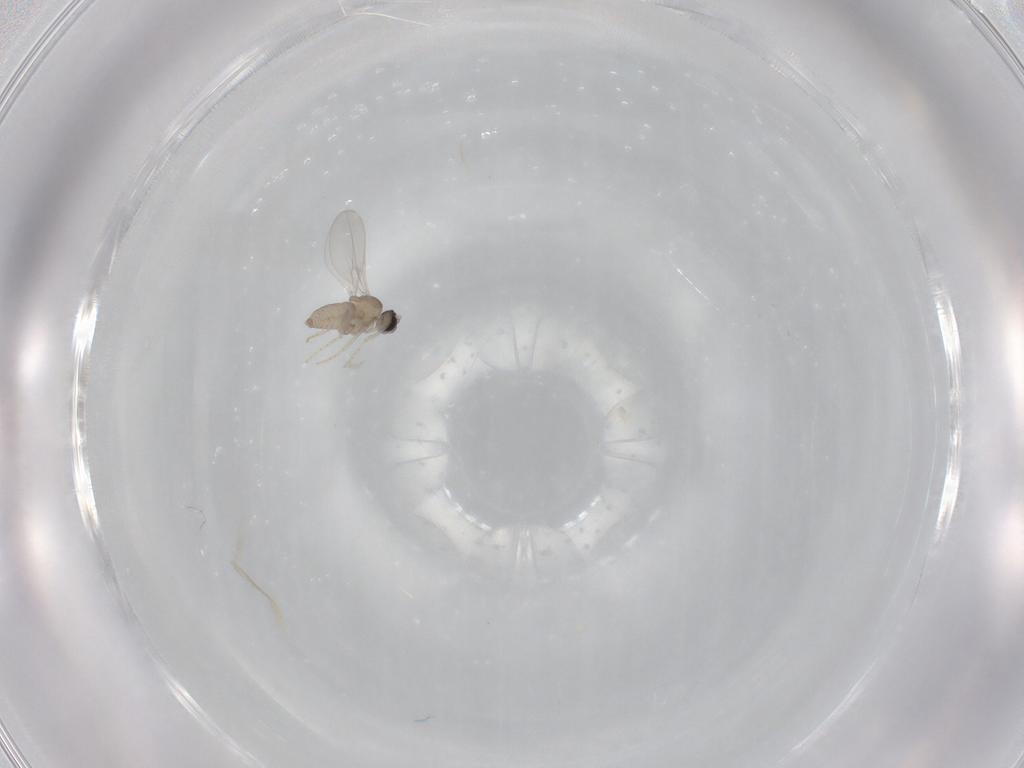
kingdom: Animalia
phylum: Arthropoda
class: Insecta
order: Diptera
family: Cecidomyiidae
